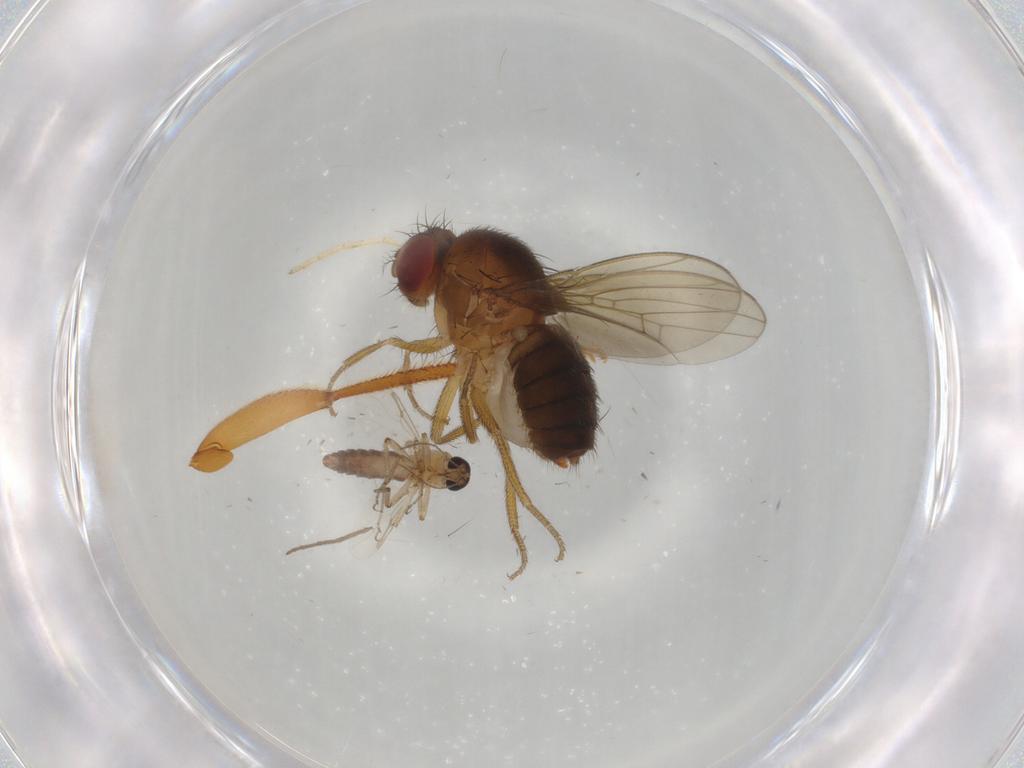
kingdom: Animalia
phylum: Arthropoda
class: Insecta
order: Diptera
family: Drosophilidae
